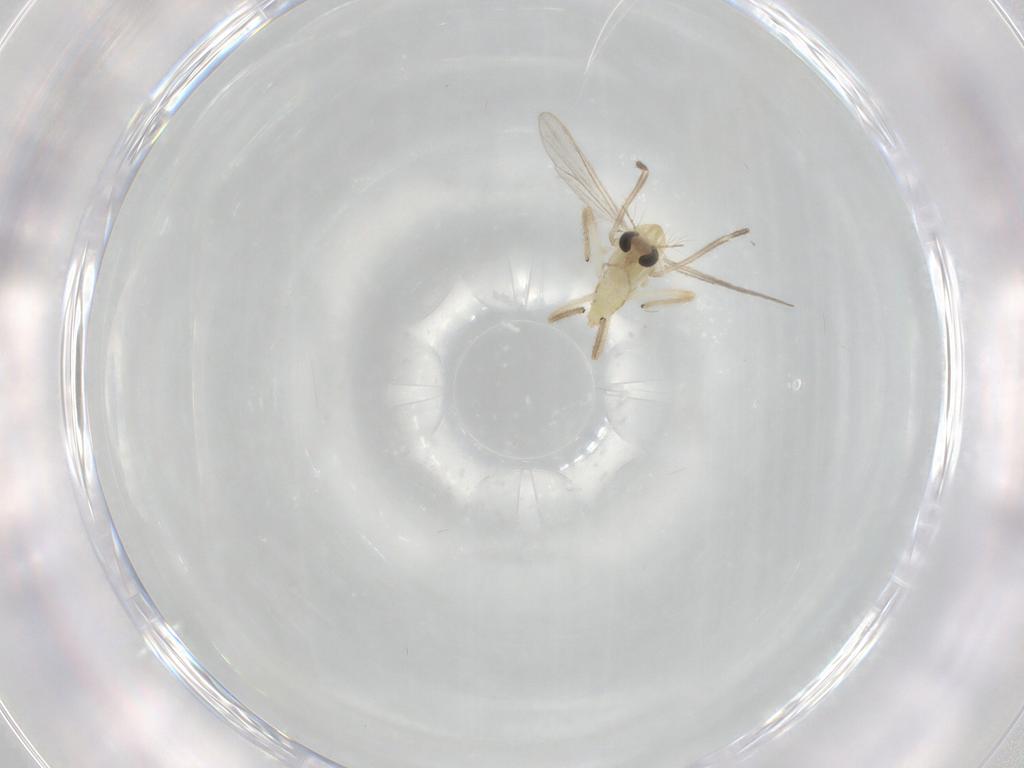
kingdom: Animalia
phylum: Arthropoda
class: Insecta
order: Diptera
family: Chironomidae
